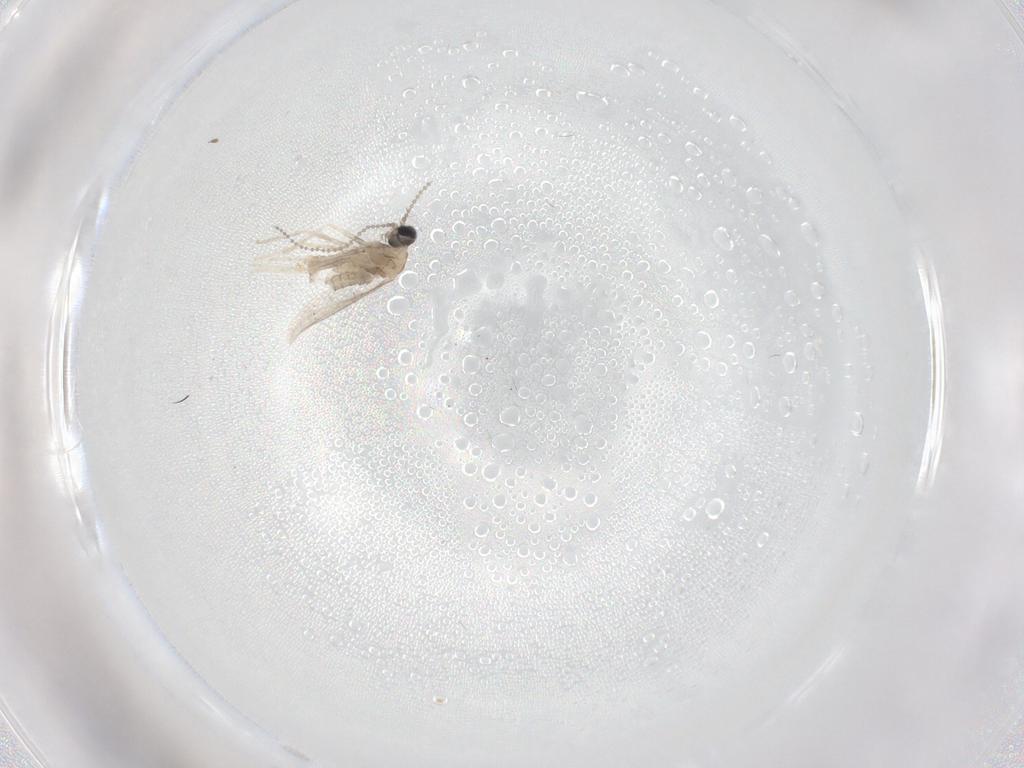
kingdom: Animalia
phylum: Arthropoda
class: Insecta
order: Diptera
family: Cecidomyiidae
